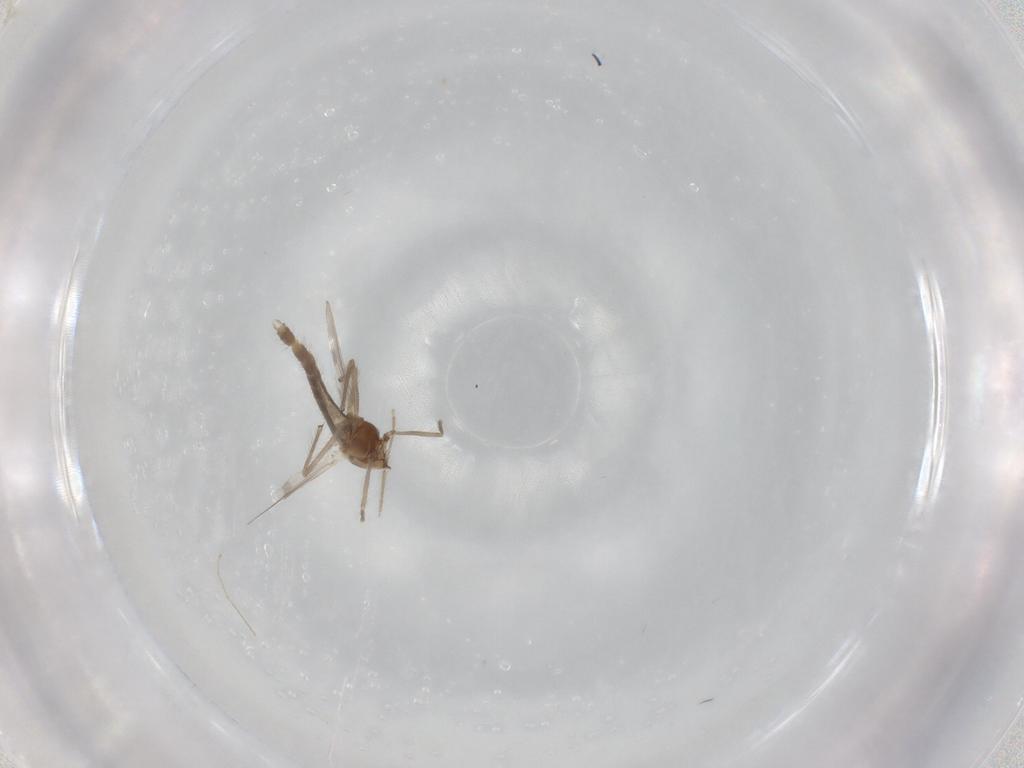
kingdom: Animalia
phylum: Arthropoda
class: Insecta
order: Diptera
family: Chironomidae
